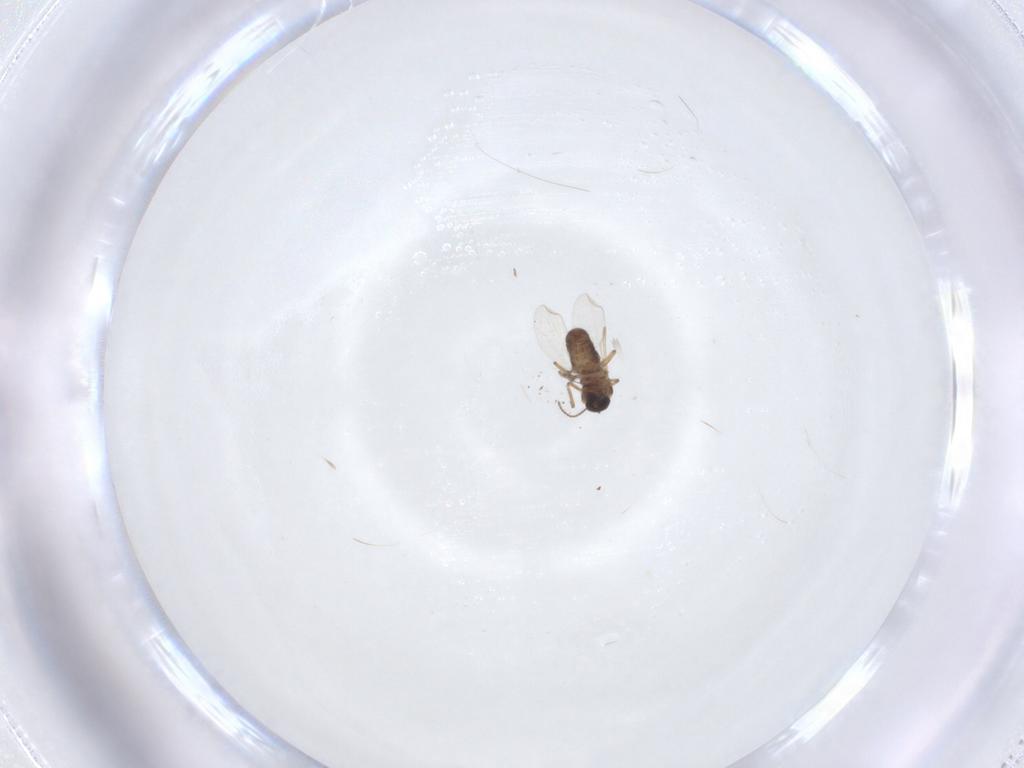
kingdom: Animalia
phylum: Arthropoda
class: Insecta
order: Diptera
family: Ceratopogonidae
